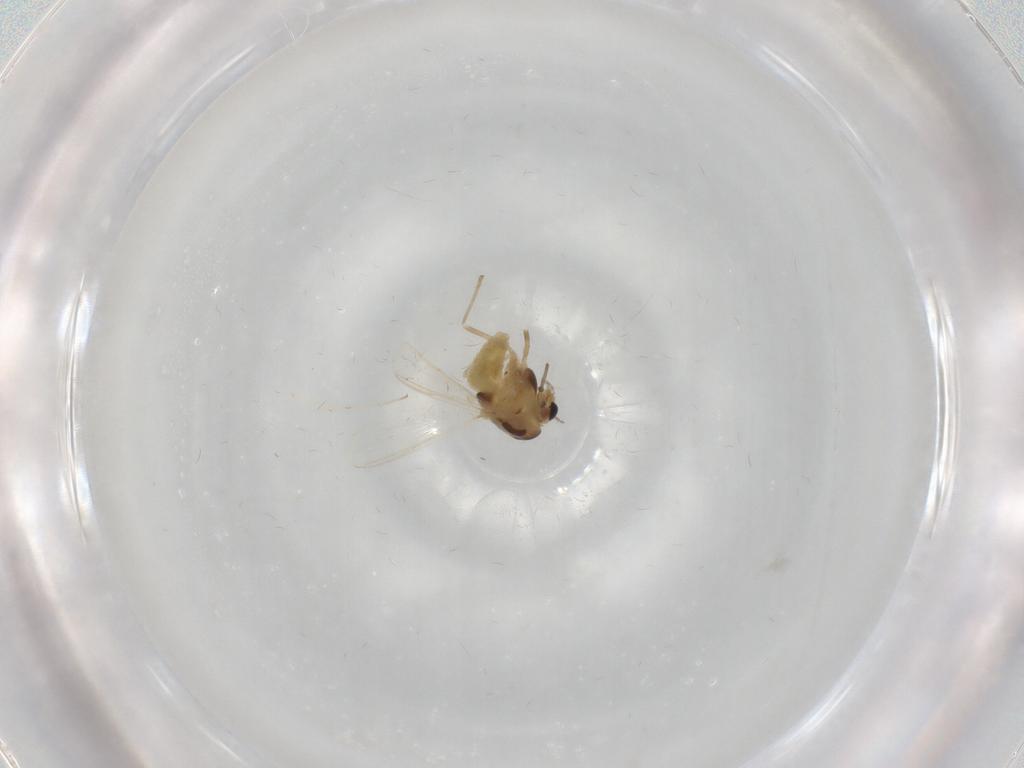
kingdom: Animalia
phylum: Arthropoda
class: Insecta
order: Diptera
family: Chironomidae
